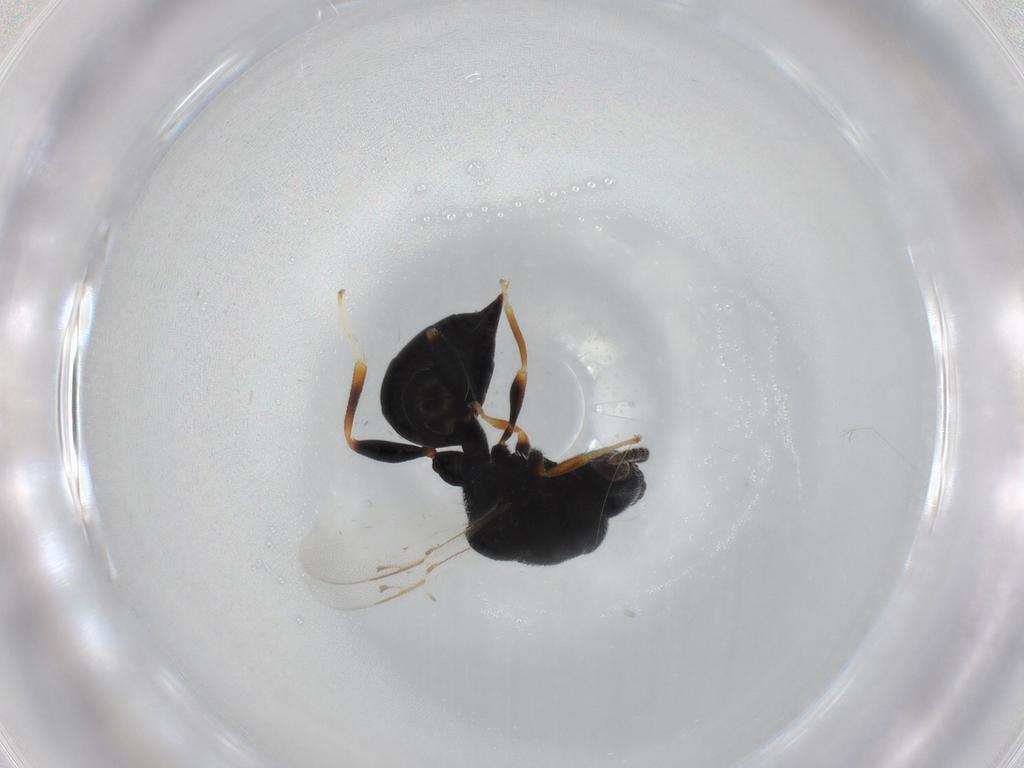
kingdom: Animalia
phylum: Arthropoda
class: Insecta
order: Hymenoptera
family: Eurytomidae
